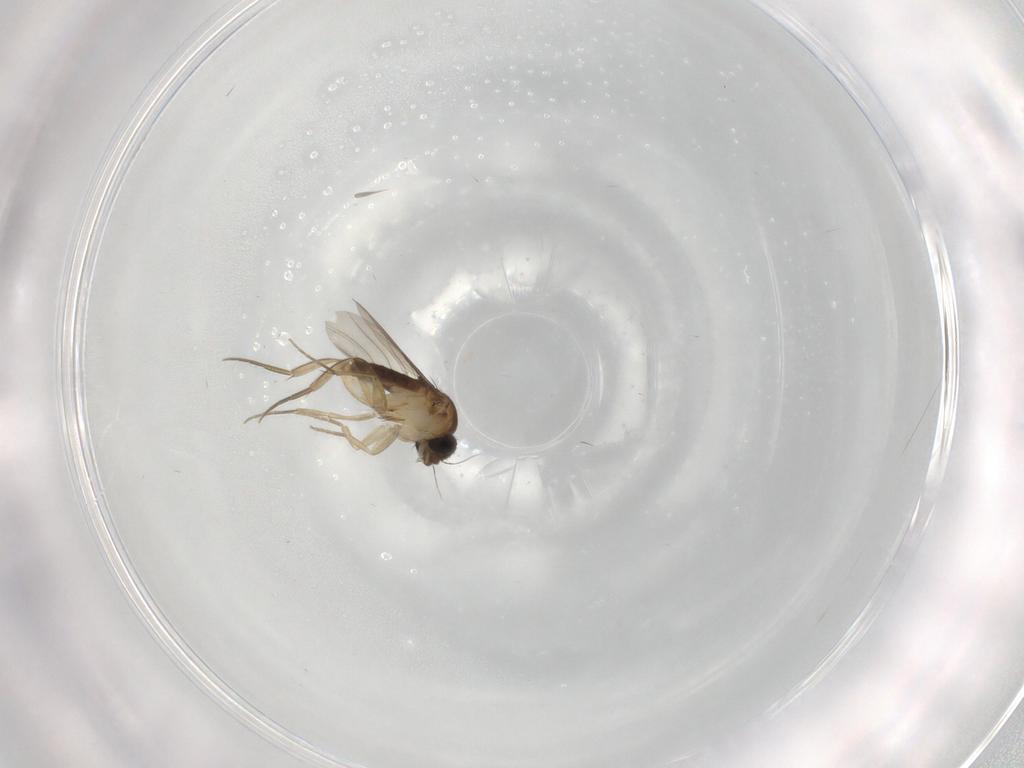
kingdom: Animalia
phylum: Arthropoda
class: Insecta
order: Diptera
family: Phoridae
